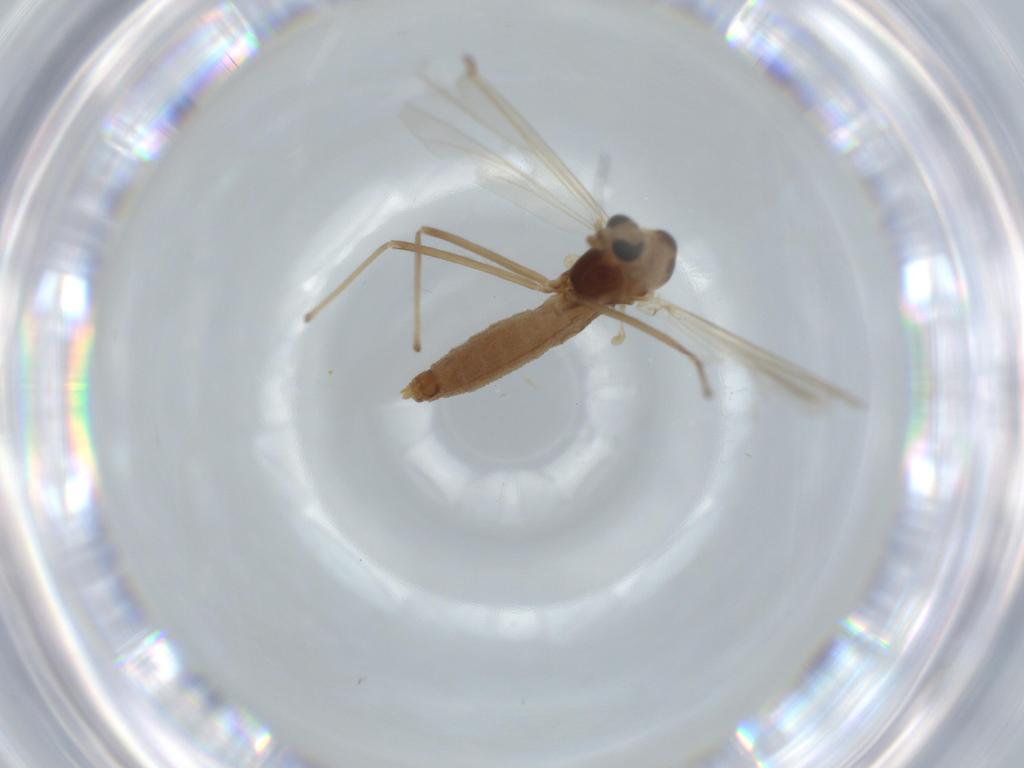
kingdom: Animalia
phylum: Arthropoda
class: Insecta
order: Diptera
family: Chironomidae
